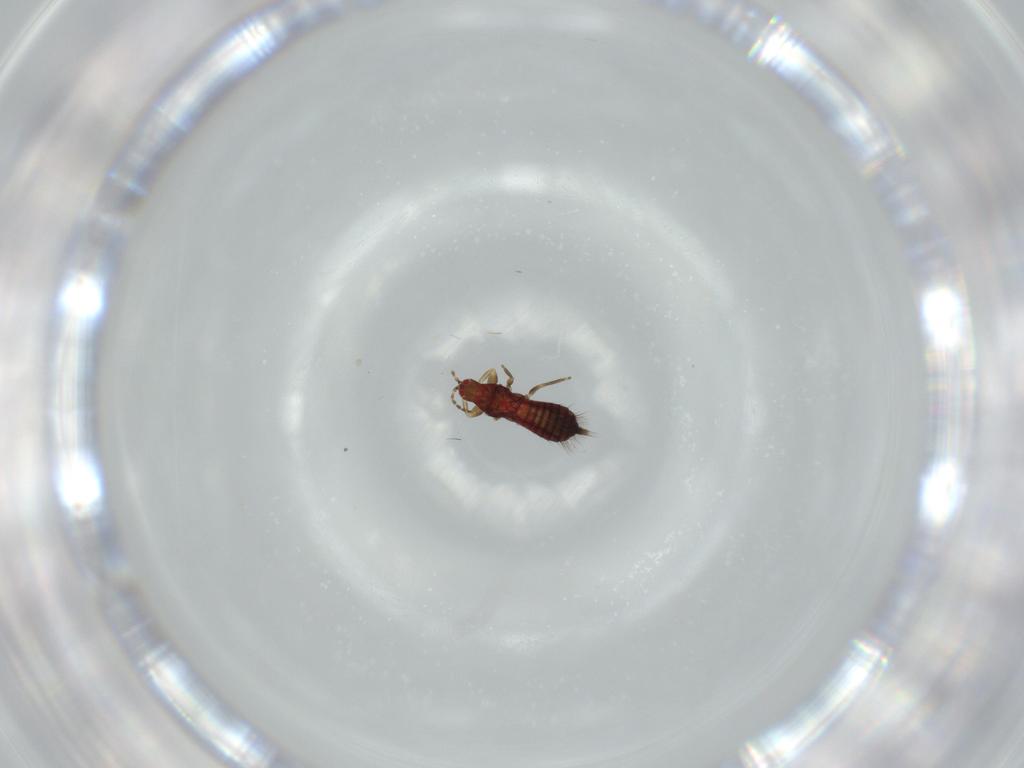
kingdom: Animalia
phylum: Arthropoda
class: Insecta
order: Thysanoptera
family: Phlaeothripidae
